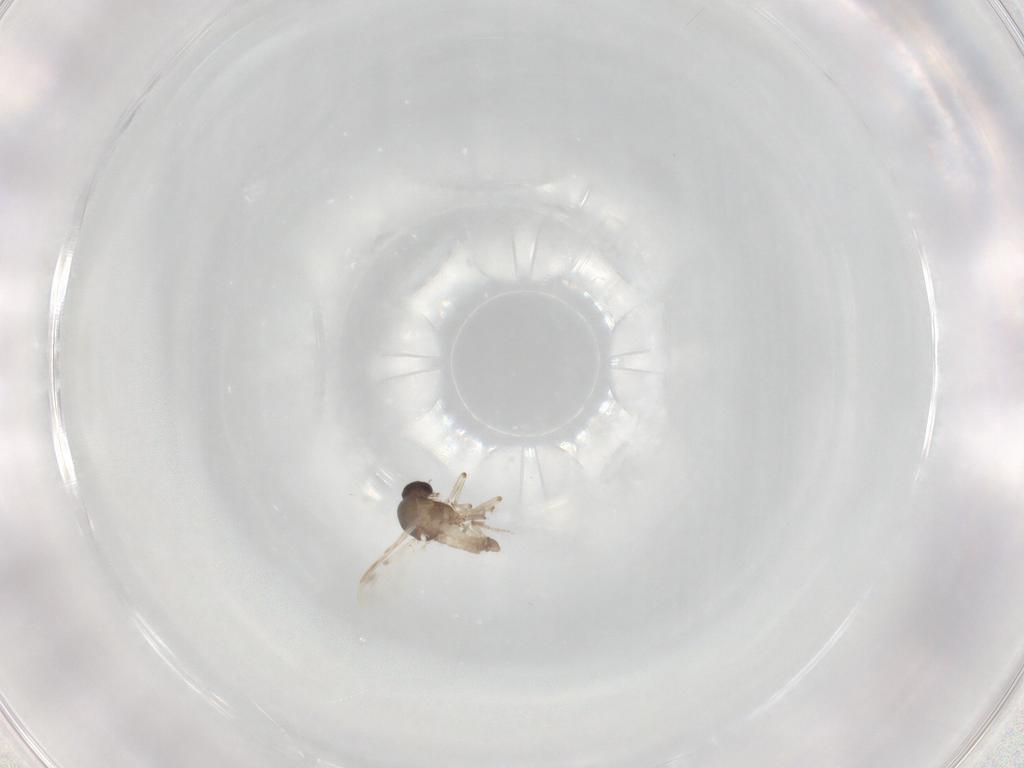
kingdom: Animalia
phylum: Arthropoda
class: Insecta
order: Diptera
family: Ceratopogonidae
